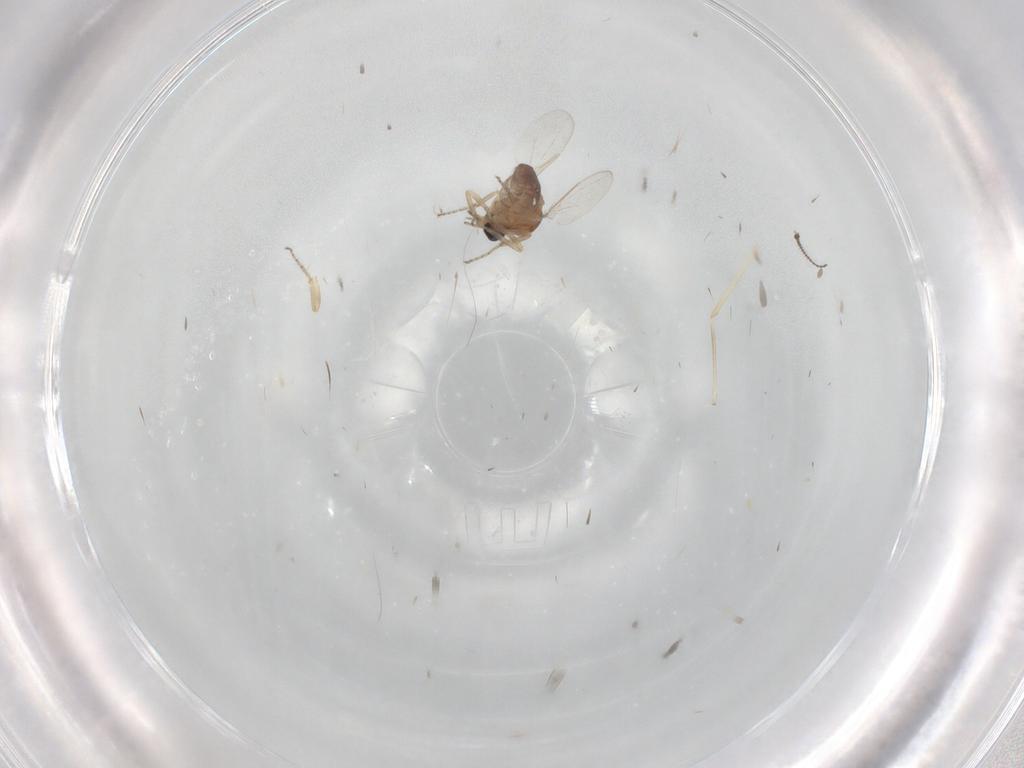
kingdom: Animalia
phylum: Arthropoda
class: Insecta
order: Diptera
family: Ceratopogonidae
